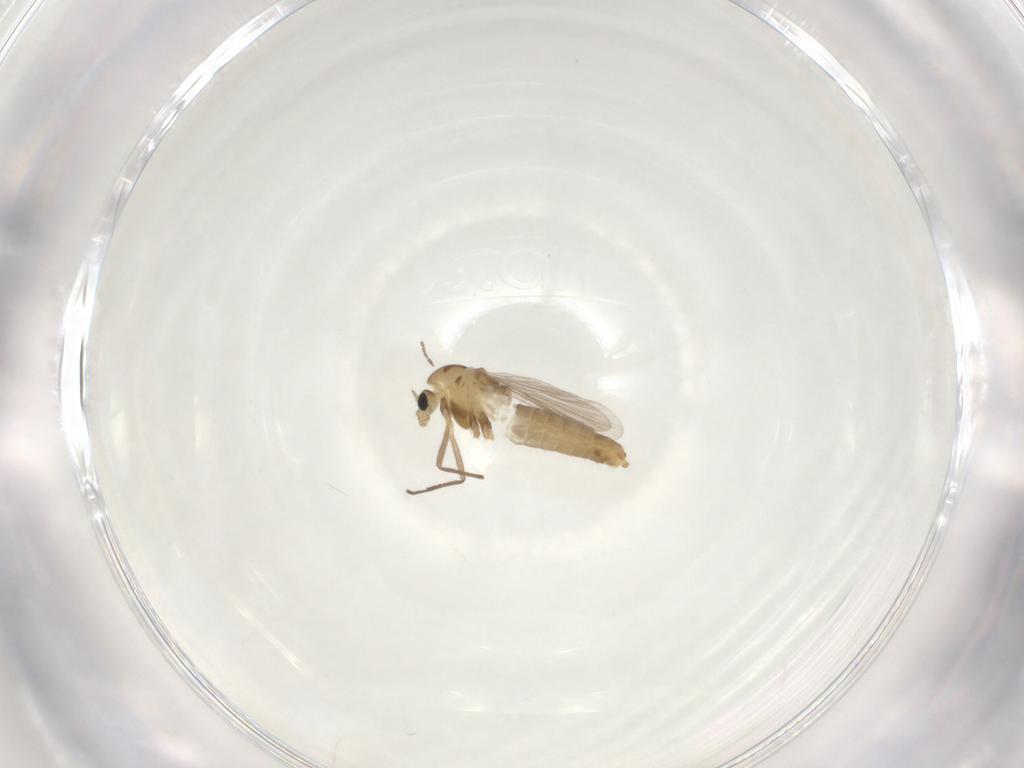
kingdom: Animalia
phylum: Arthropoda
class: Insecta
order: Diptera
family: Chironomidae
